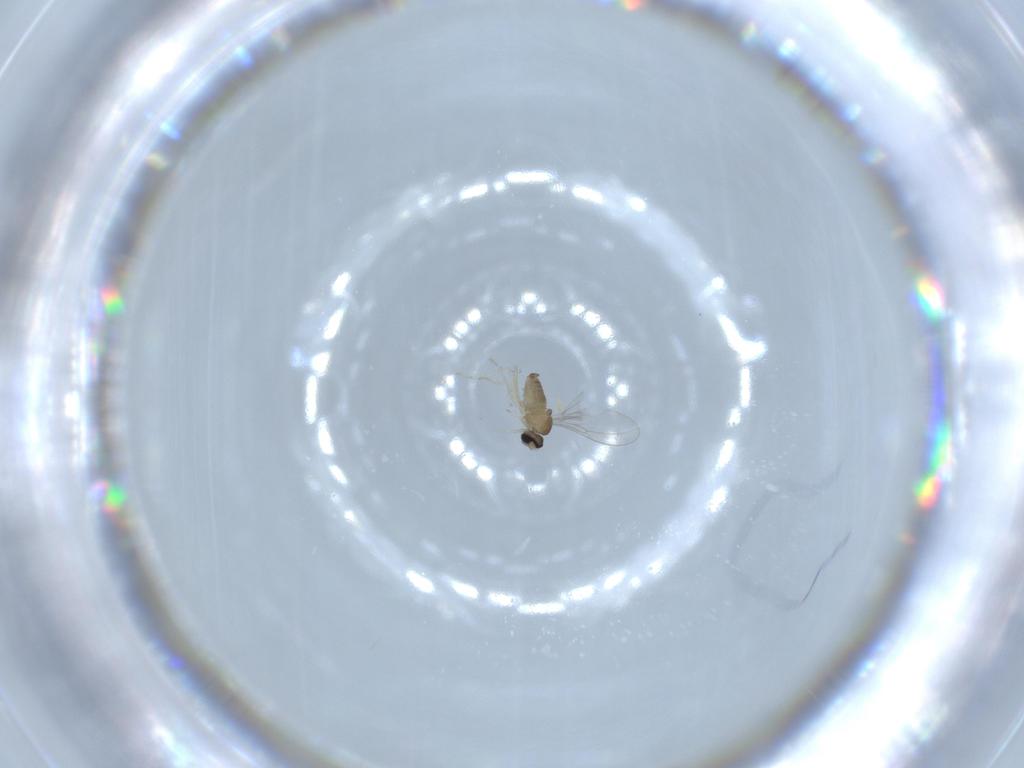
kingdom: Animalia
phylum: Arthropoda
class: Insecta
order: Diptera
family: Cecidomyiidae
